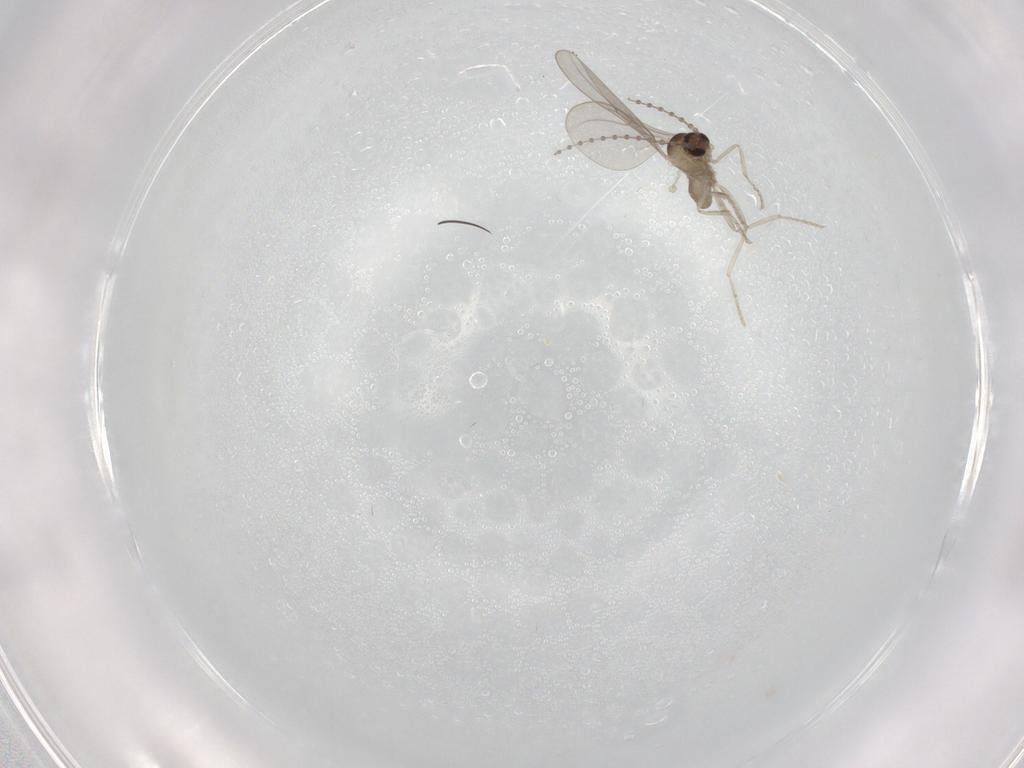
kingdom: Animalia
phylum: Arthropoda
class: Insecta
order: Diptera
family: Cecidomyiidae
